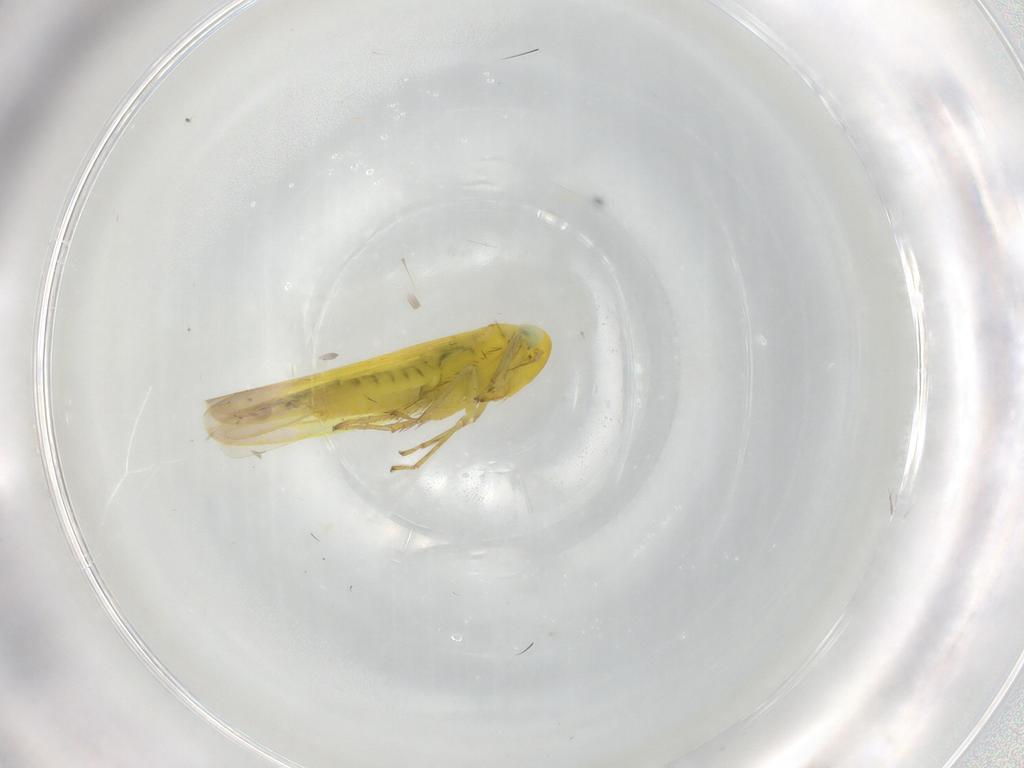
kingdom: Animalia
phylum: Arthropoda
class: Insecta
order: Hemiptera
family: Cicadellidae
